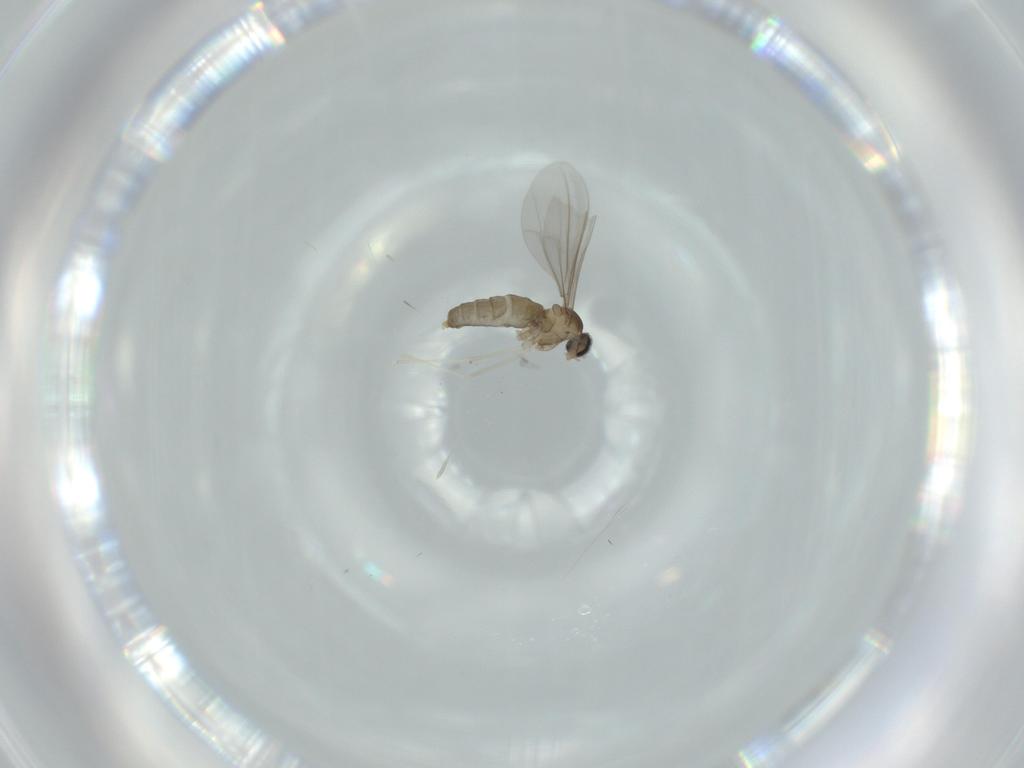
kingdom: Animalia
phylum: Arthropoda
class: Insecta
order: Diptera
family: Cecidomyiidae
